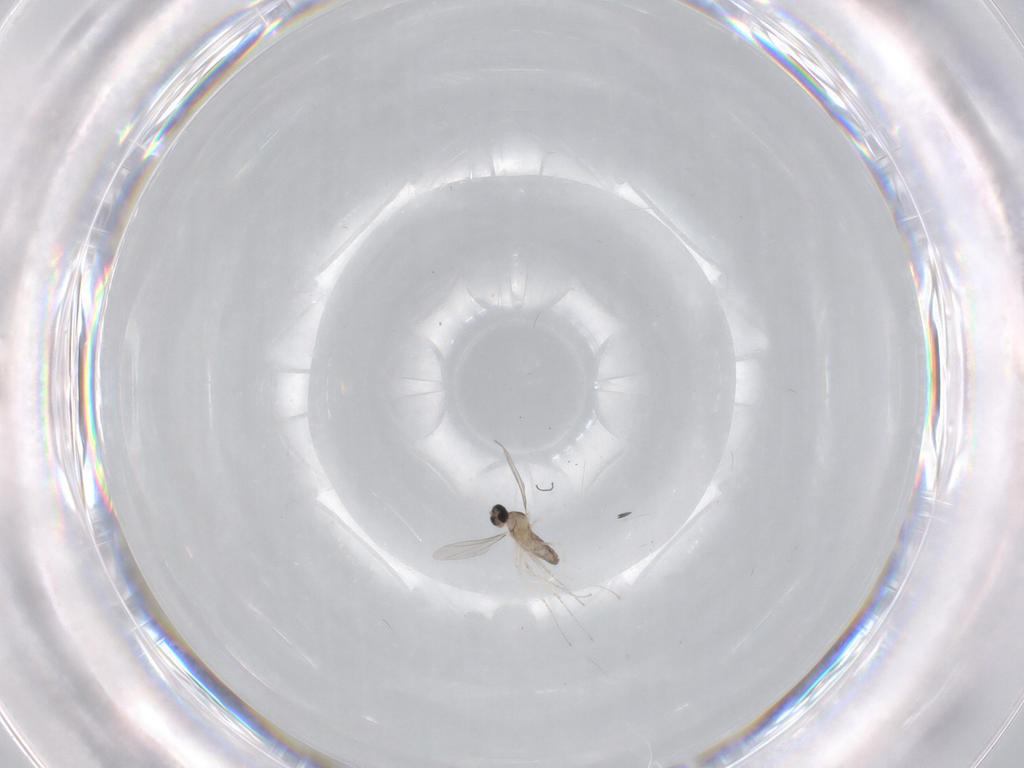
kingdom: Animalia
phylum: Arthropoda
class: Insecta
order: Diptera
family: Cecidomyiidae
